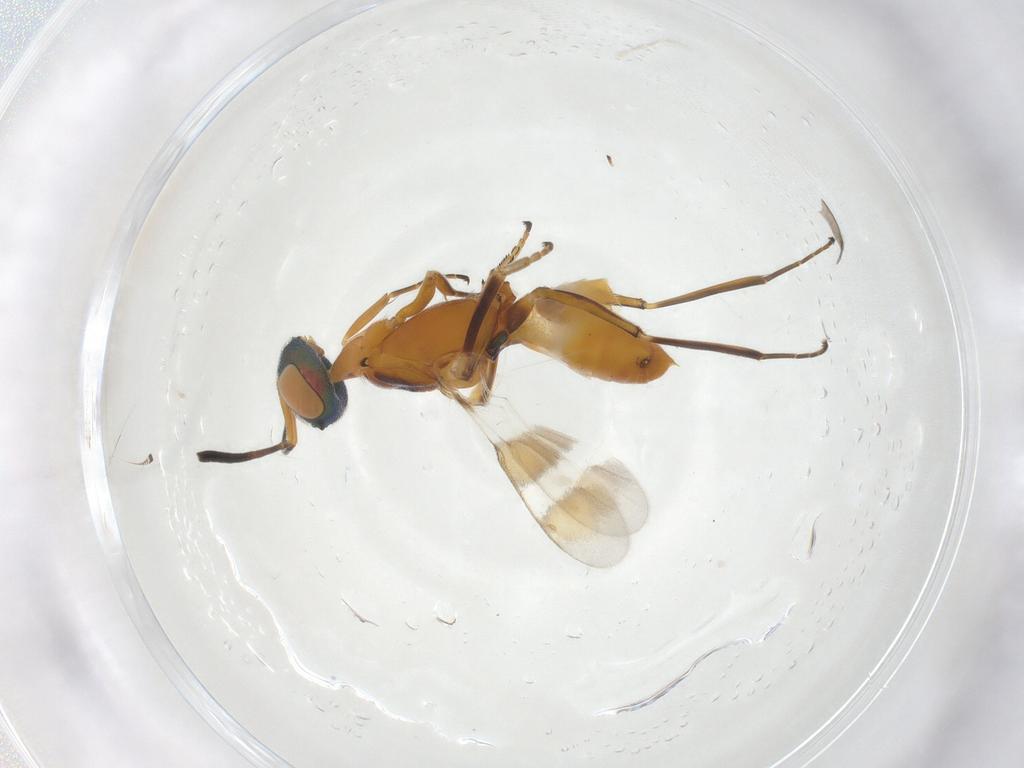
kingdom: Animalia
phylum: Arthropoda
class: Insecta
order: Hymenoptera
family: Eupelmidae
